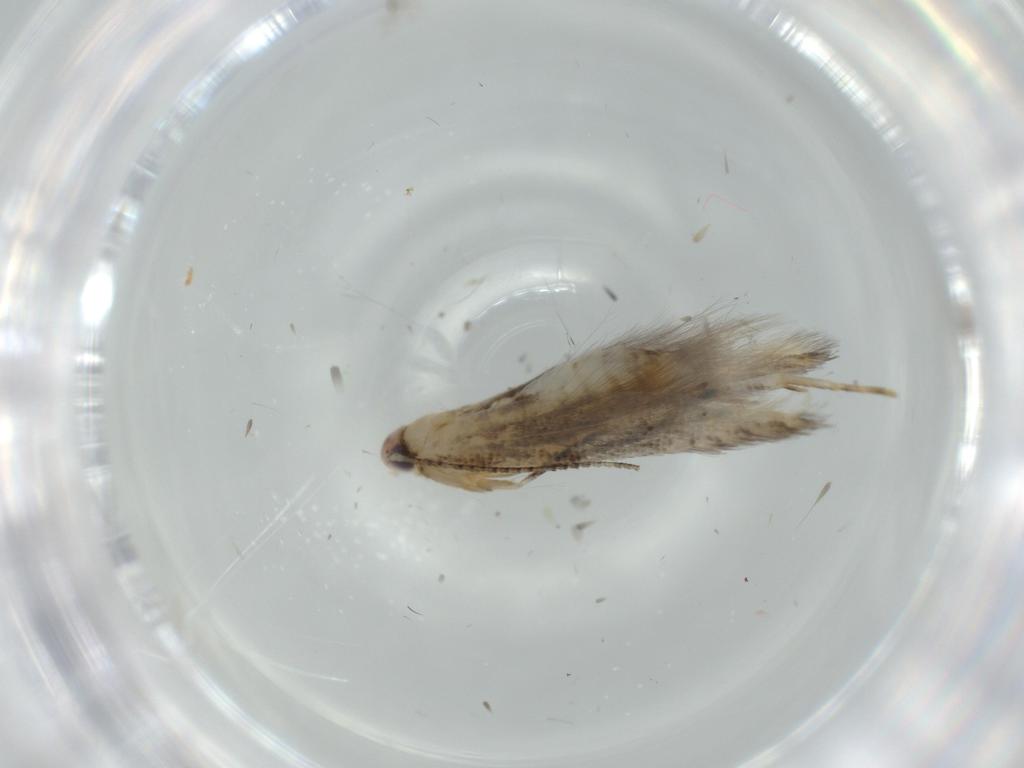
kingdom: Animalia
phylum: Arthropoda
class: Insecta
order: Lepidoptera
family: Stathmopodidae
